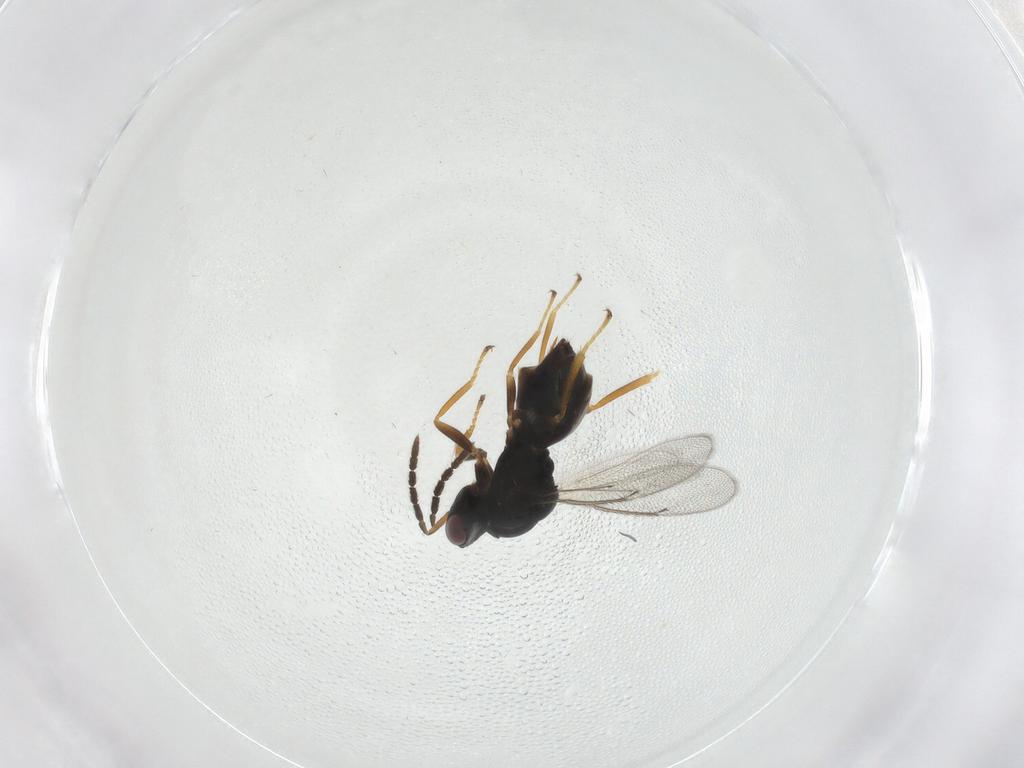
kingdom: Animalia
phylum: Arthropoda
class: Insecta
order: Hymenoptera
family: Eulophidae
